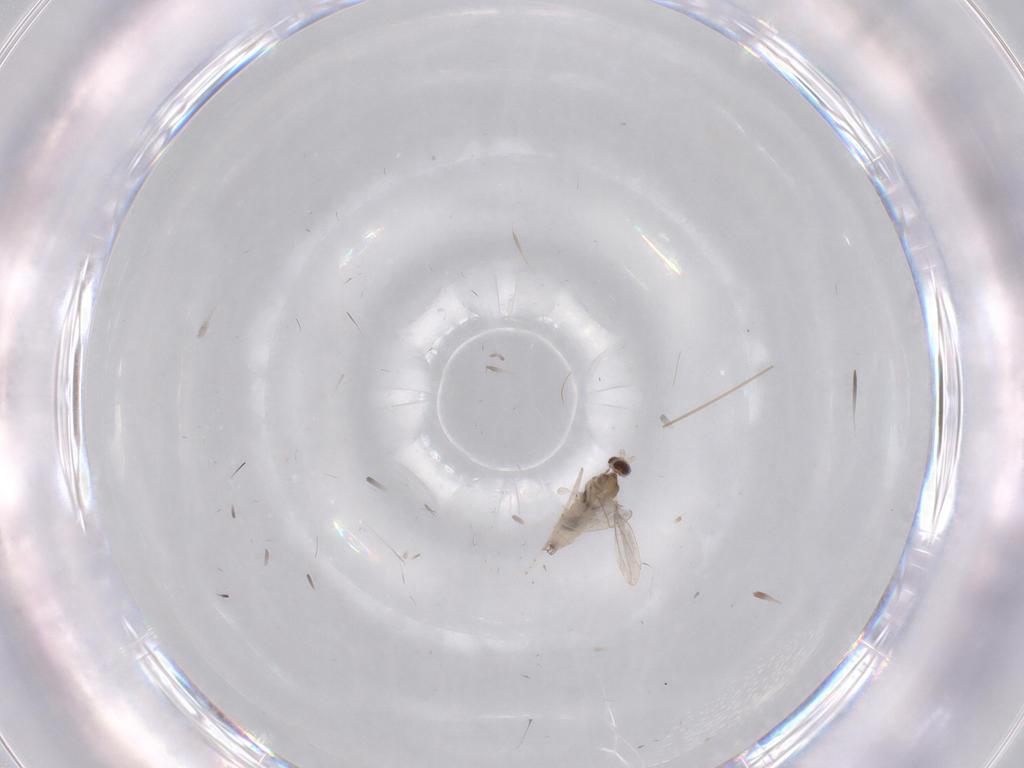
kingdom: Animalia
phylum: Arthropoda
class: Insecta
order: Diptera
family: Cecidomyiidae
